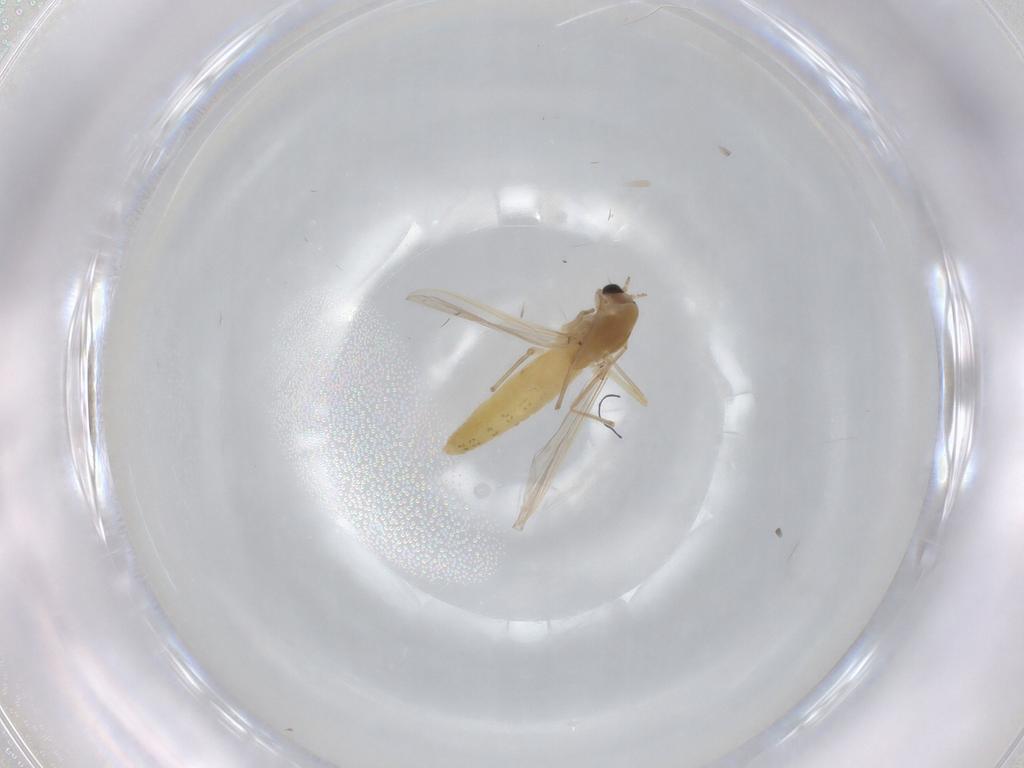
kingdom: Animalia
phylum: Arthropoda
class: Insecta
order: Diptera
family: Chironomidae
